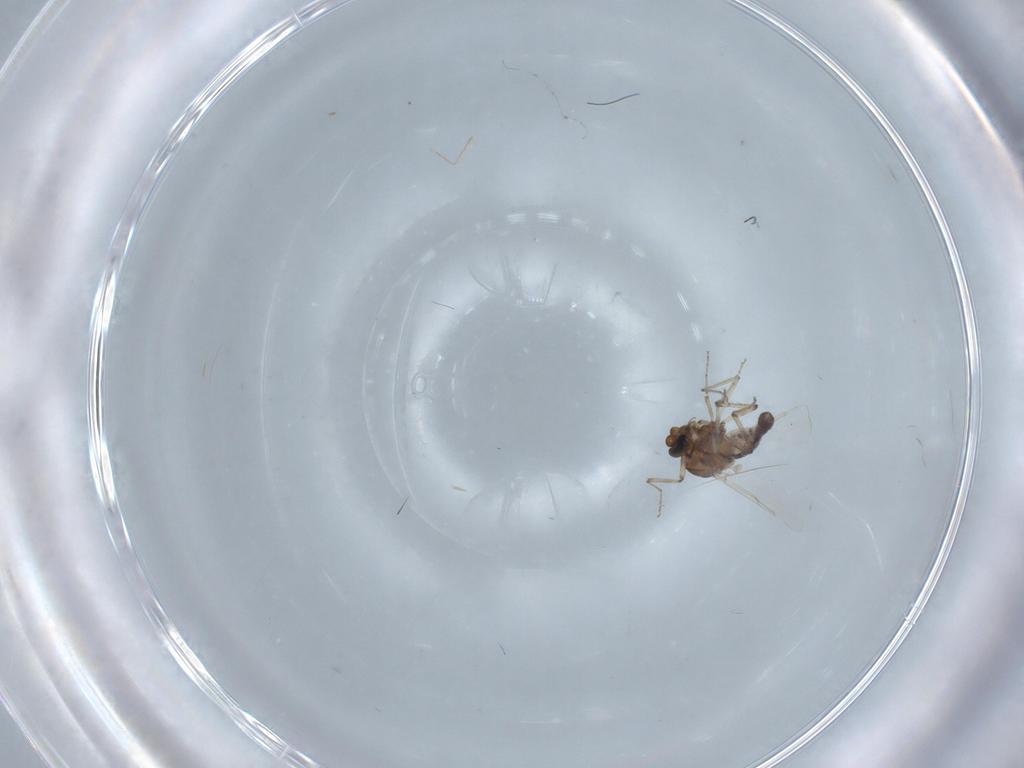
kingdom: Animalia
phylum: Arthropoda
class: Insecta
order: Diptera
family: Ceratopogonidae
